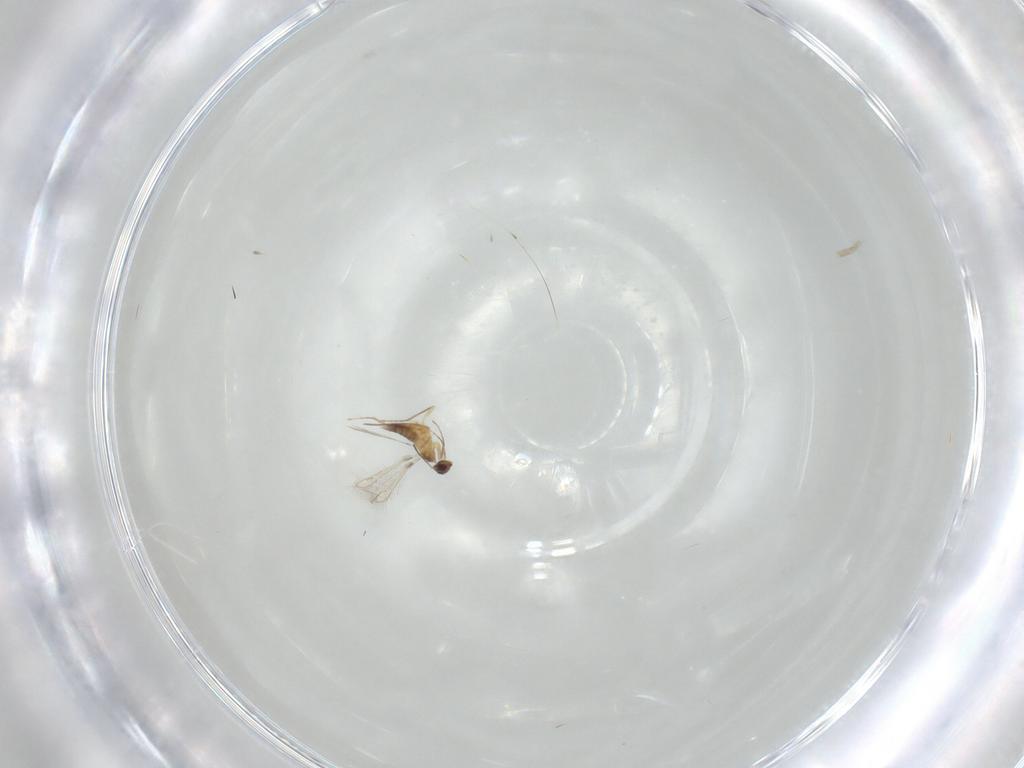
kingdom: Animalia
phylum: Arthropoda
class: Insecta
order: Hymenoptera
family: Mymaridae
